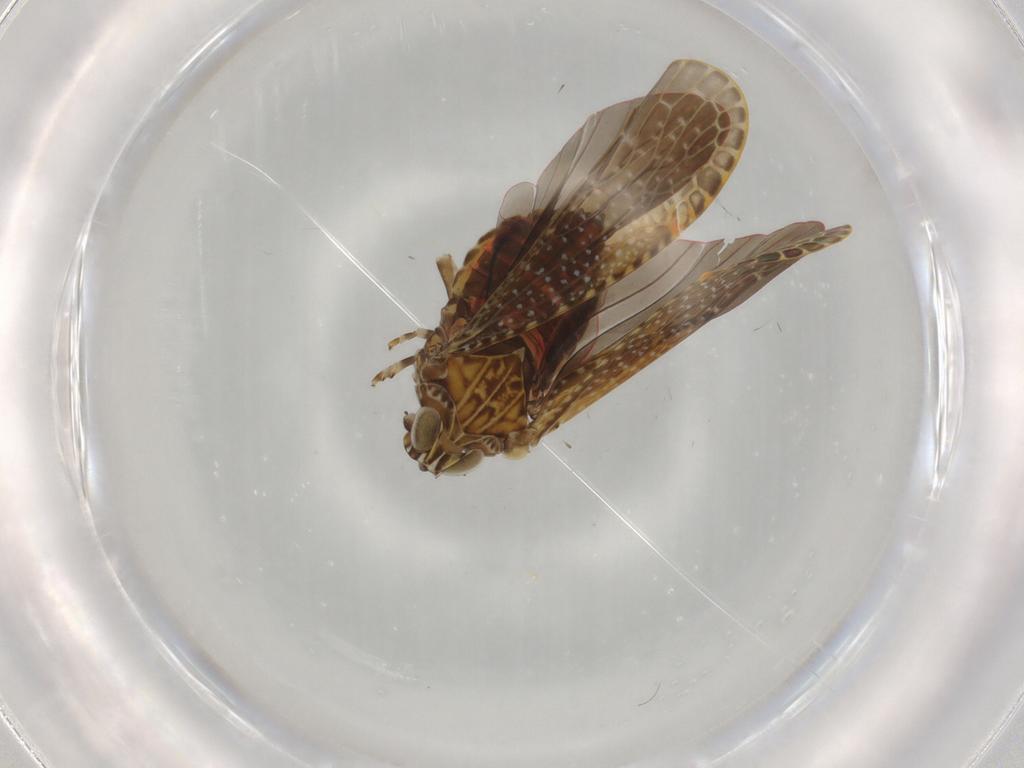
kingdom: Animalia
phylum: Arthropoda
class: Insecta
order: Hemiptera
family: Achilidae
